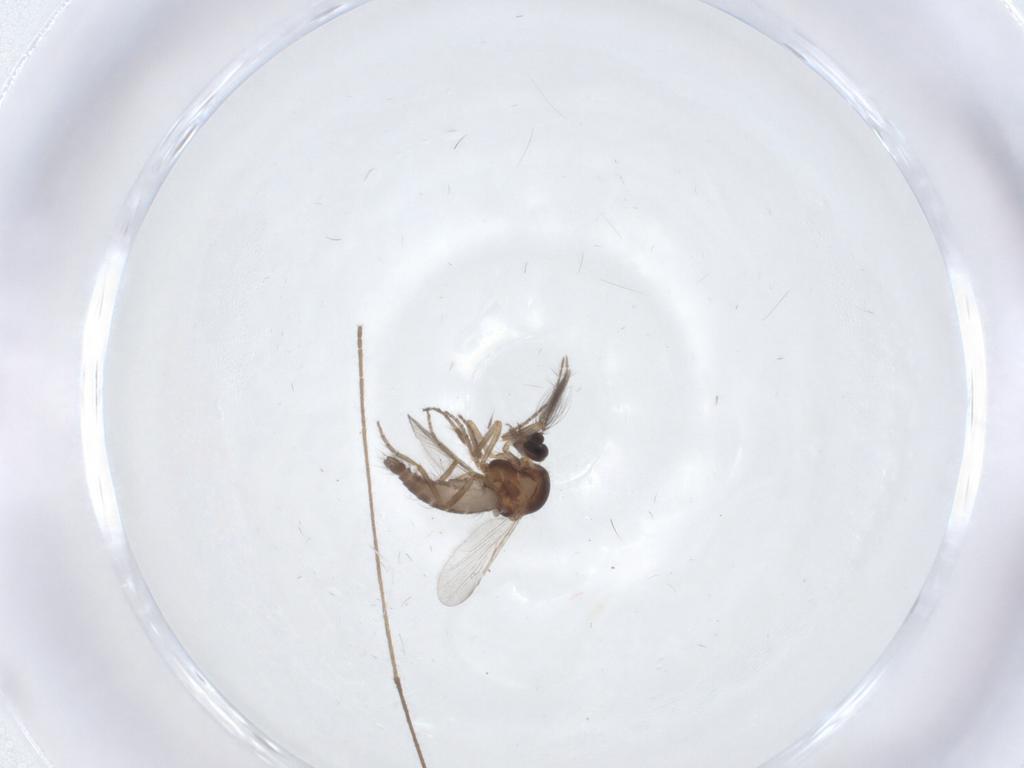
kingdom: Animalia
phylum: Arthropoda
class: Insecta
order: Diptera
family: Limoniidae
